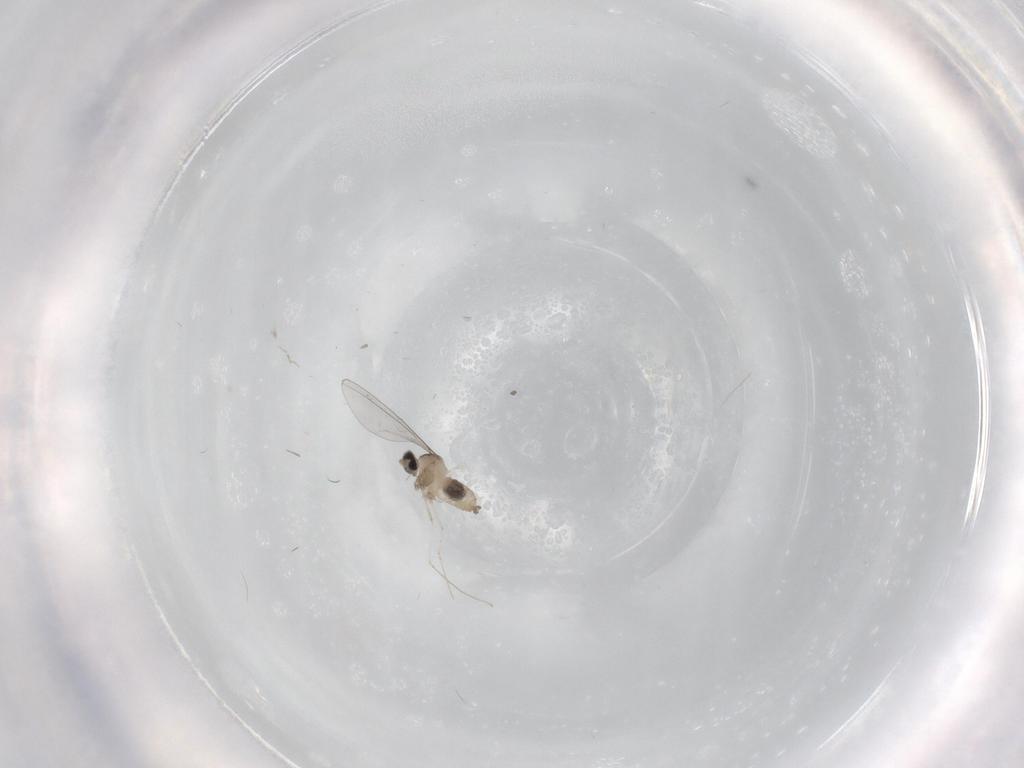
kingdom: Animalia
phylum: Arthropoda
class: Insecta
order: Diptera
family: Cecidomyiidae
